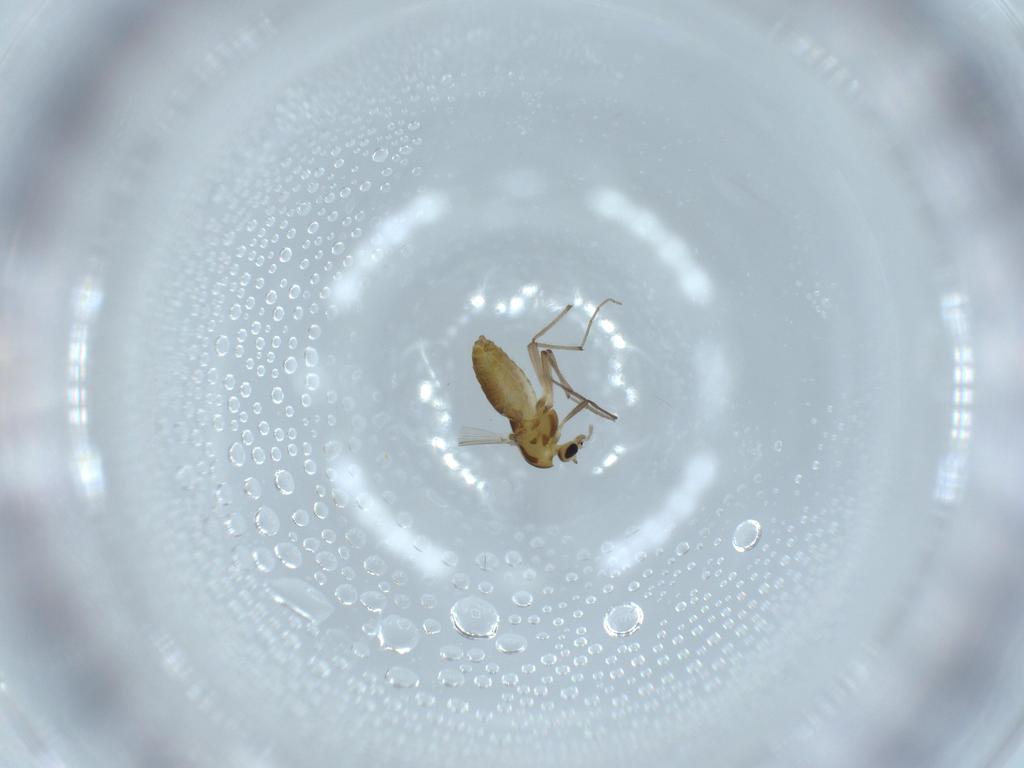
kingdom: Animalia
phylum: Arthropoda
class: Insecta
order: Diptera
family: Chironomidae
